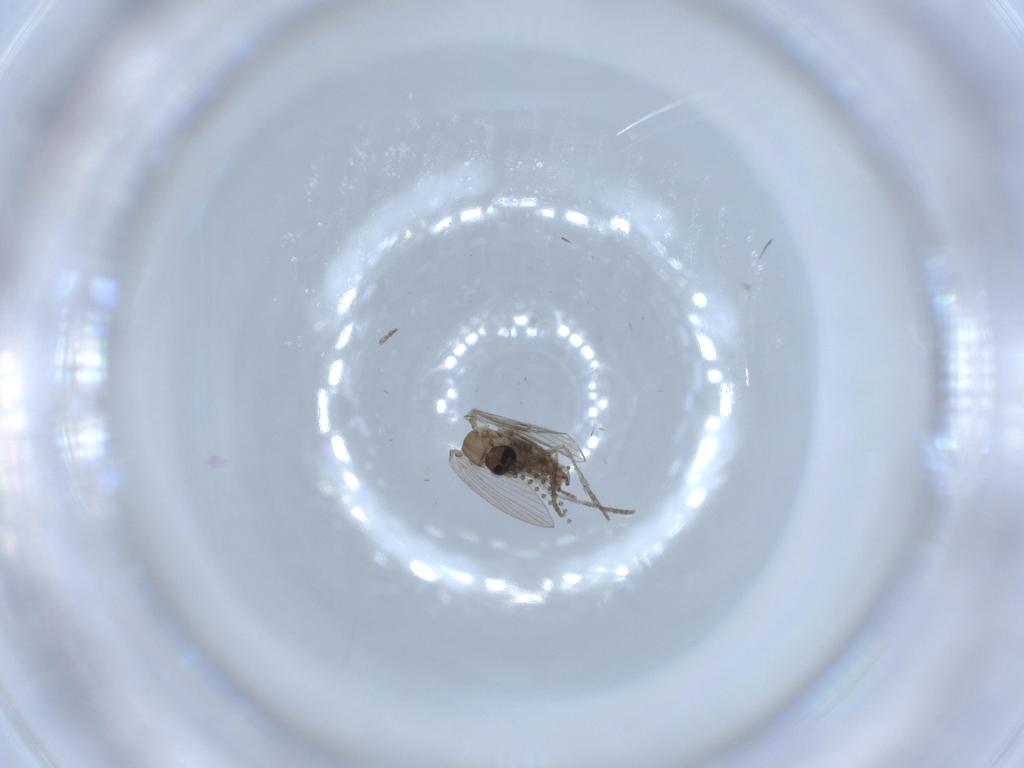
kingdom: Animalia
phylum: Arthropoda
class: Insecta
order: Diptera
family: Psychodidae
